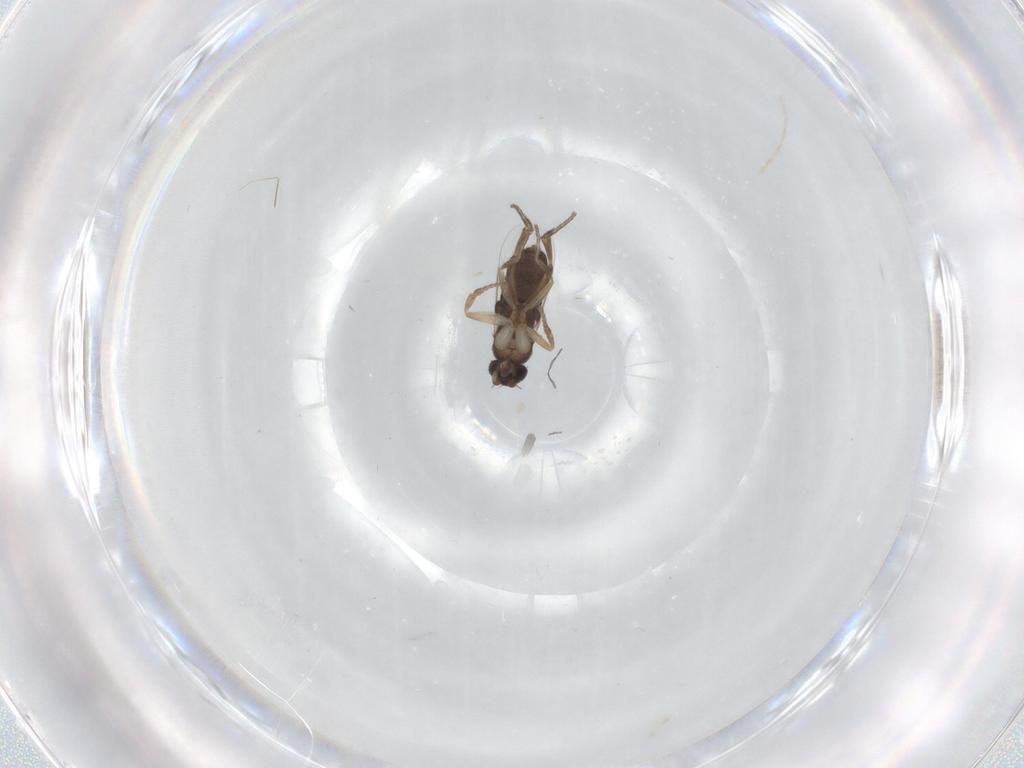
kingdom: Animalia
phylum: Arthropoda
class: Insecta
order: Diptera
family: Phoridae
